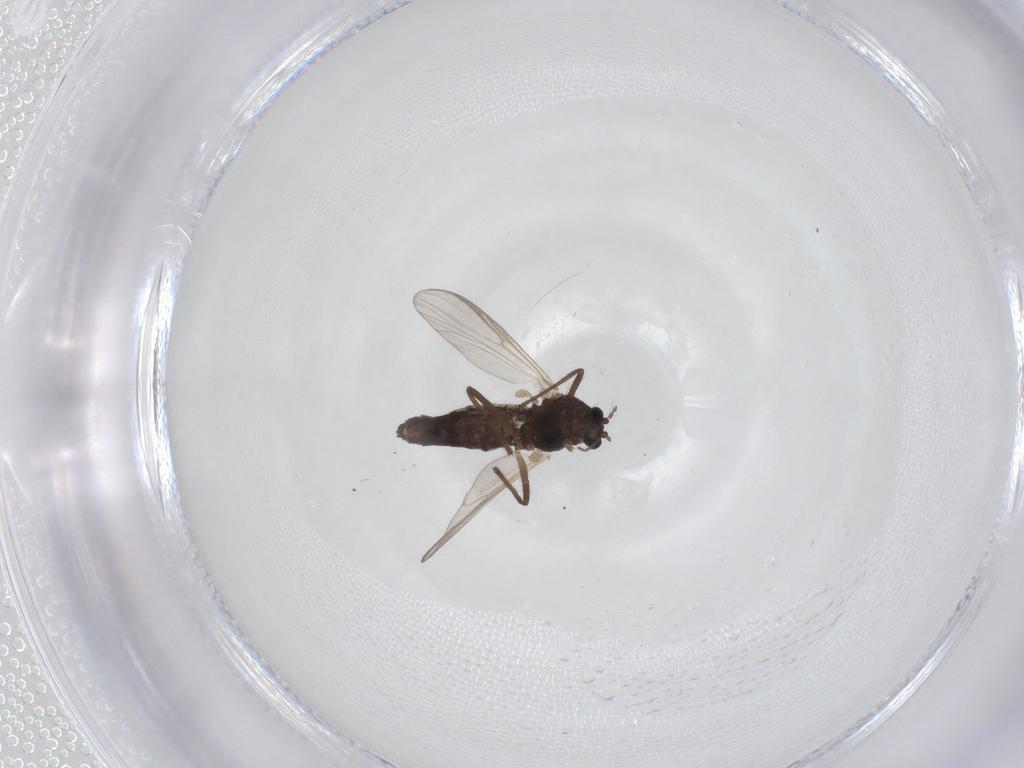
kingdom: Animalia
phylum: Arthropoda
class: Insecta
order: Diptera
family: Chironomidae
